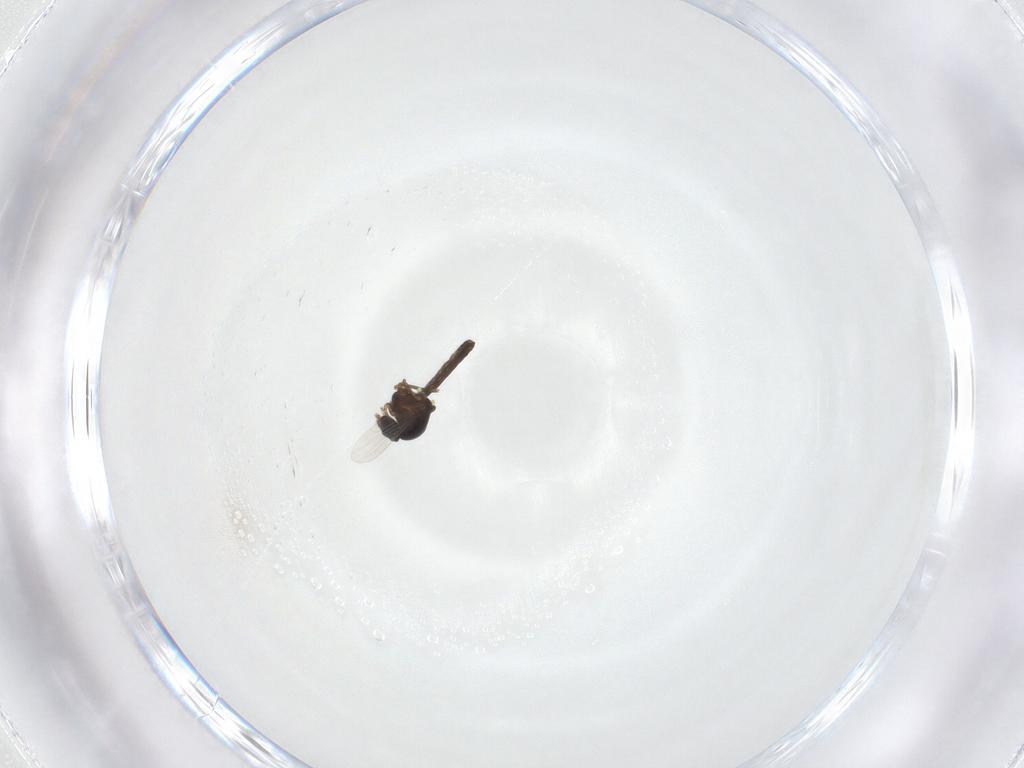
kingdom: Animalia
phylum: Arthropoda
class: Insecta
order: Diptera
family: Ceratopogonidae
